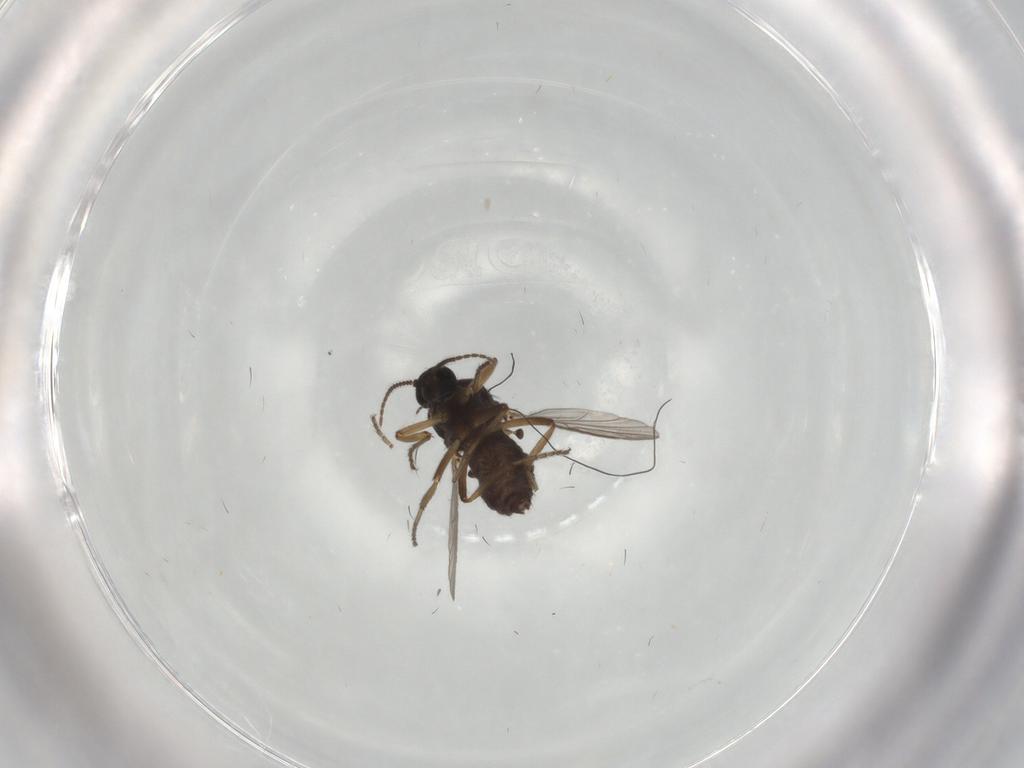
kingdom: Animalia
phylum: Arthropoda
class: Insecta
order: Diptera
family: Ceratopogonidae
